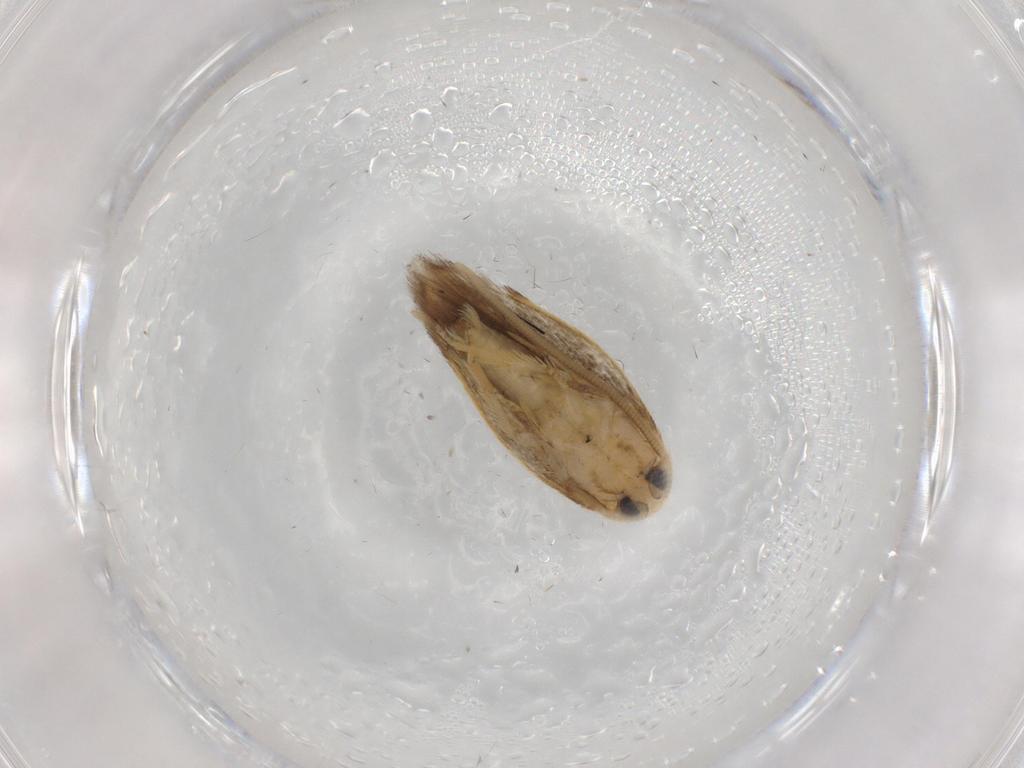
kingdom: Animalia
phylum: Arthropoda
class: Insecta
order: Lepidoptera
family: Opostegidae
